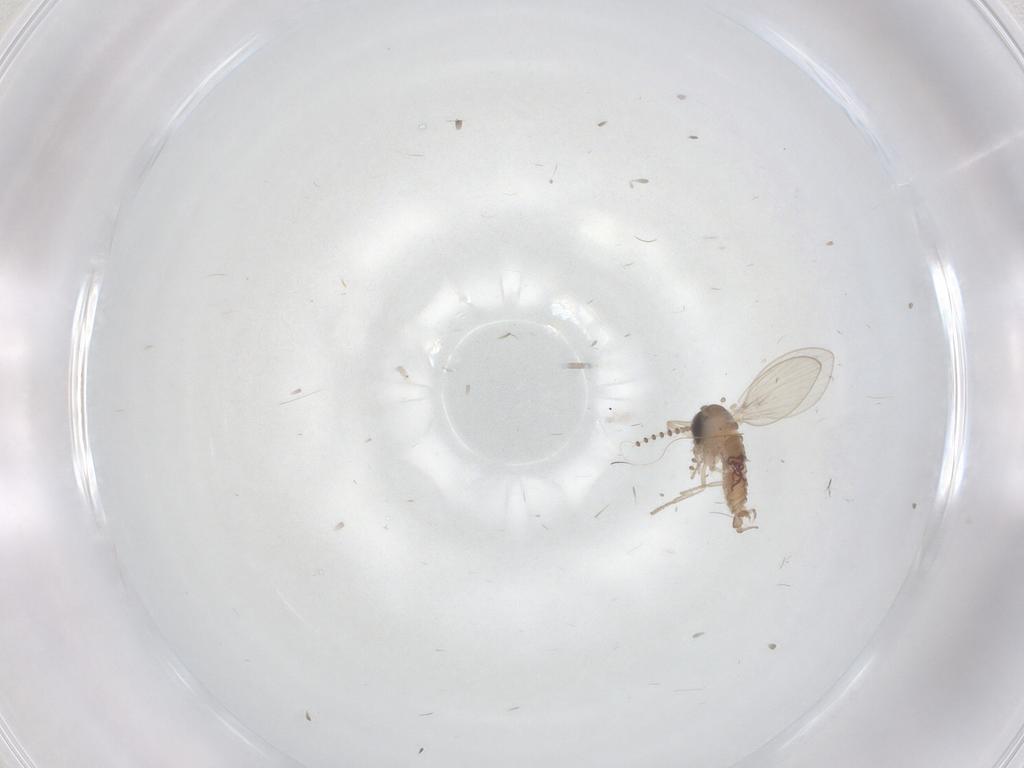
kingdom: Animalia
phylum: Arthropoda
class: Insecta
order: Diptera
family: Psychodidae
